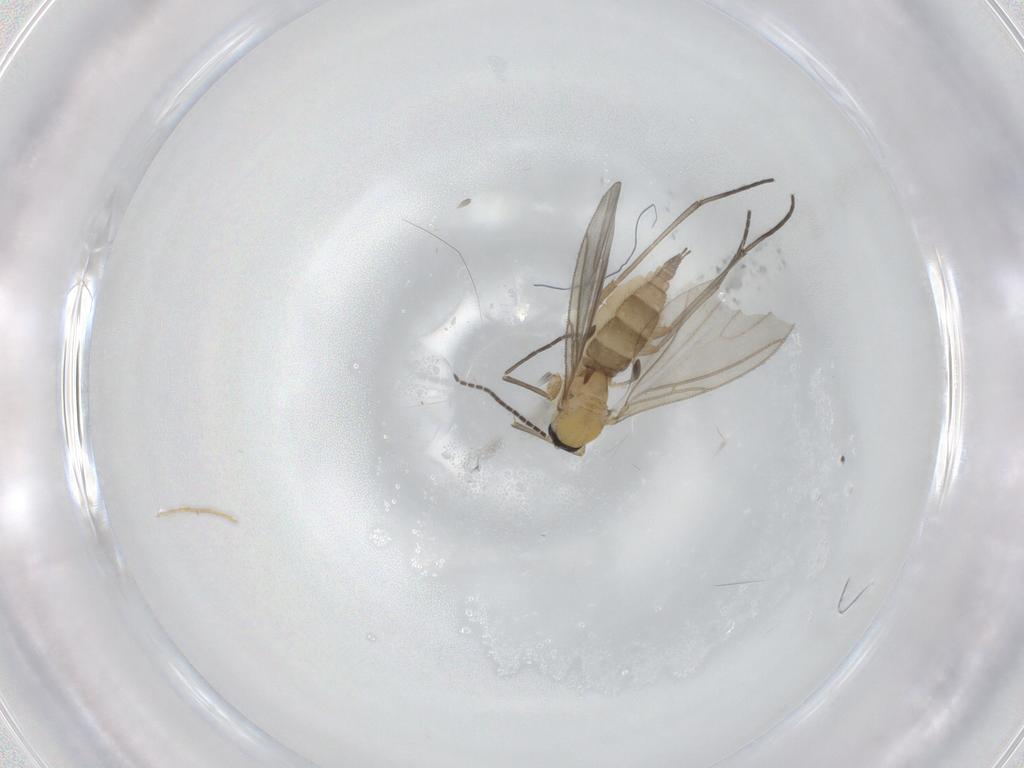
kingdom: Animalia
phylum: Arthropoda
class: Insecta
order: Diptera
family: Sciaridae
